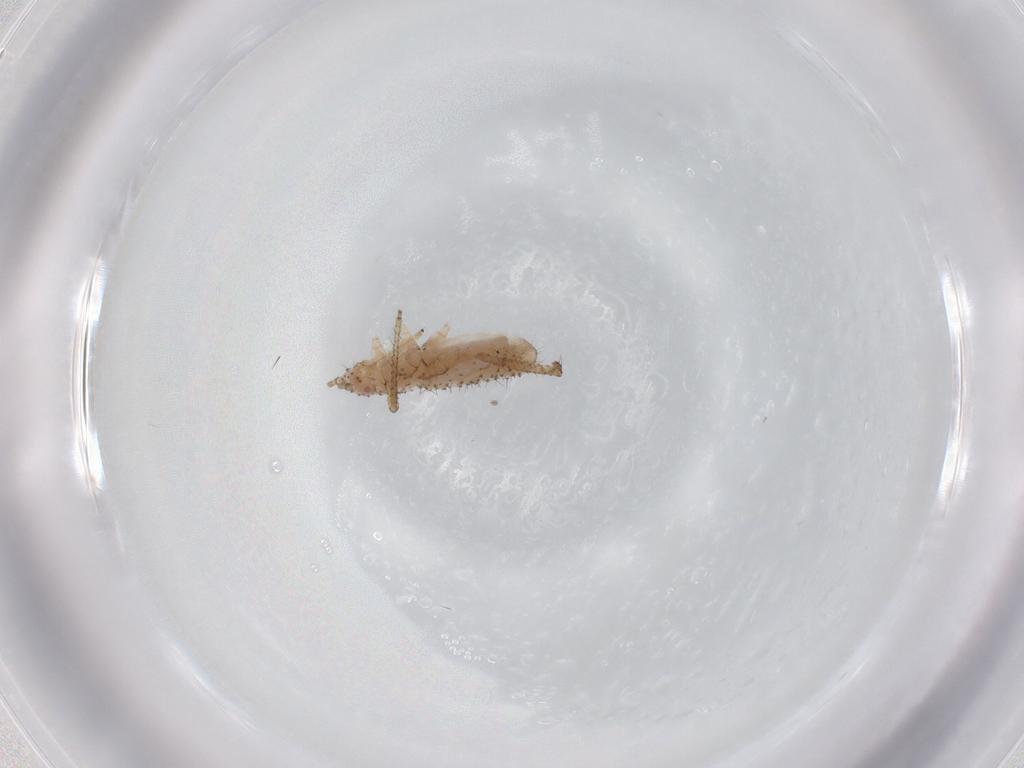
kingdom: Animalia
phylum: Arthropoda
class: Insecta
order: Hemiptera
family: Aphididae
